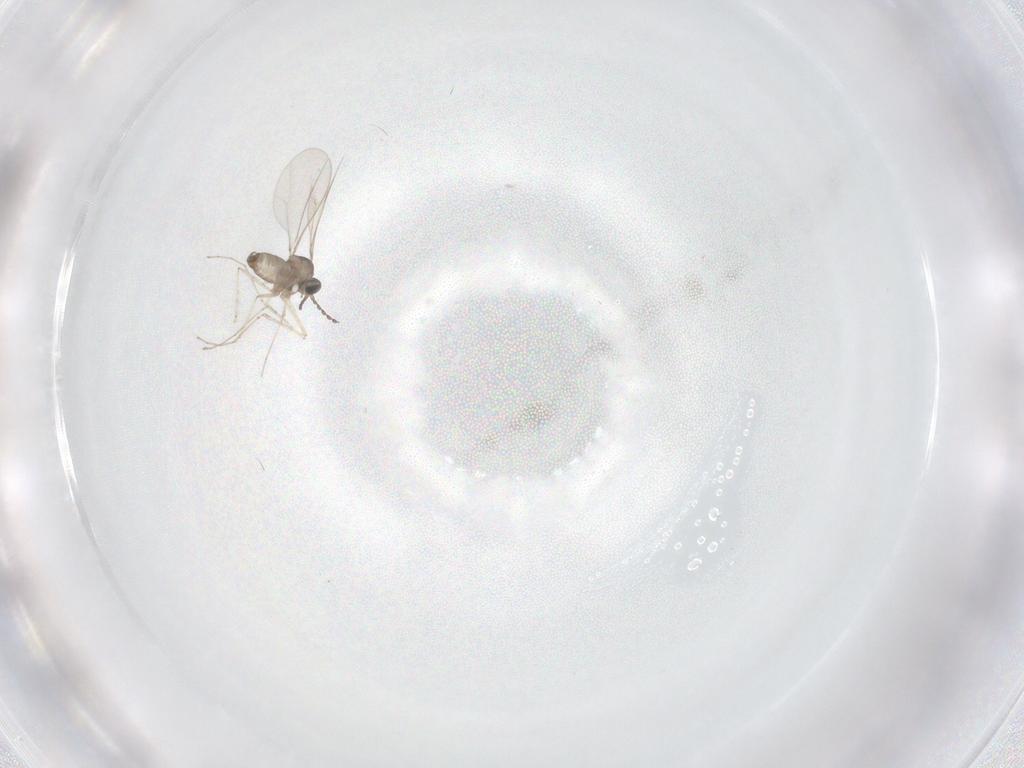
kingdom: Animalia
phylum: Arthropoda
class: Insecta
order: Diptera
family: Cecidomyiidae
